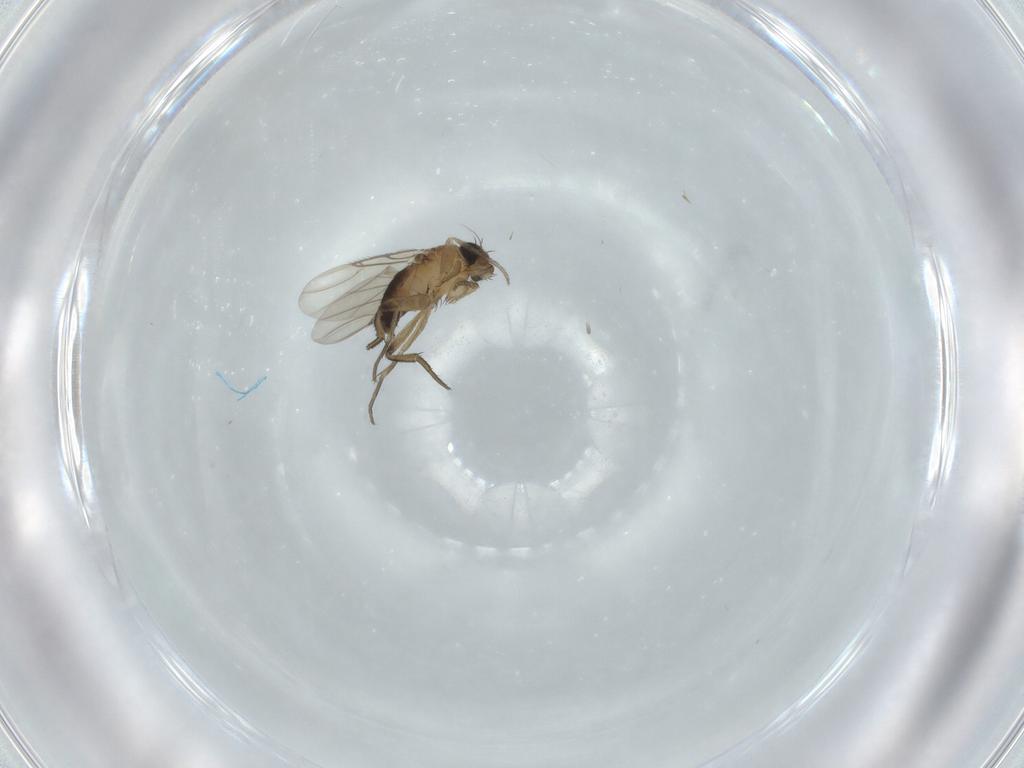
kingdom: Animalia
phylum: Arthropoda
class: Insecta
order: Diptera
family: Phoridae
